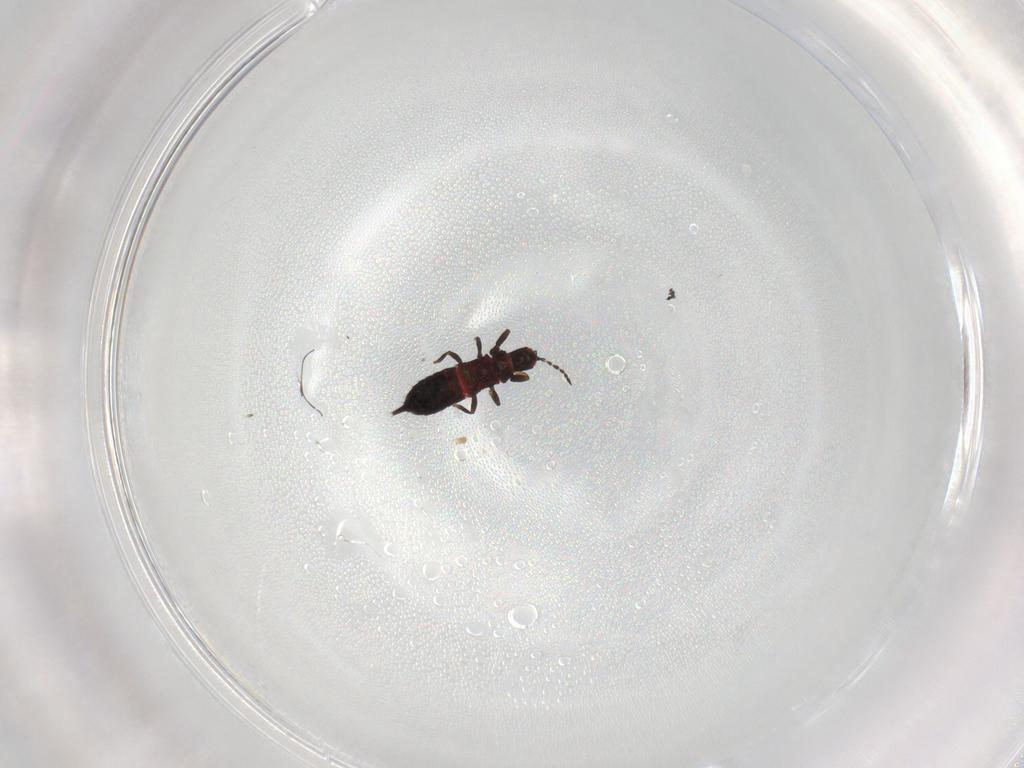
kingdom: Animalia
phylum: Arthropoda
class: Insecta
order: Thysanoptera
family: Phlaeothripidae
